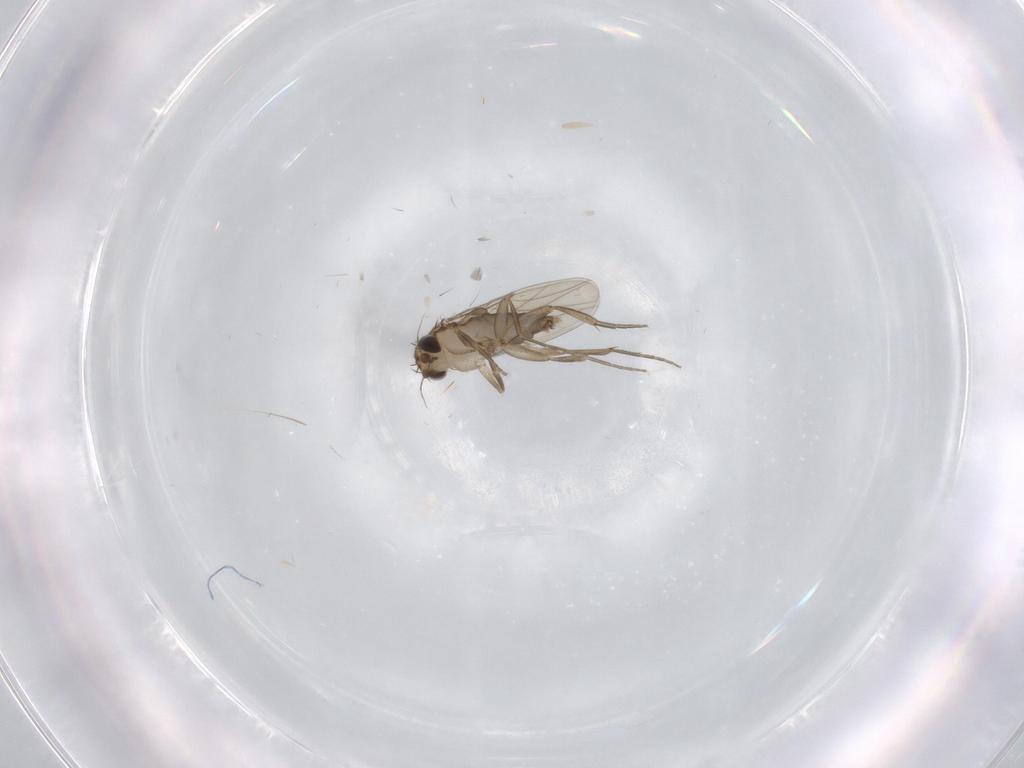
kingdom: Animalia
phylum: Arthropoda
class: Insecta
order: Diptera
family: Phoridae
